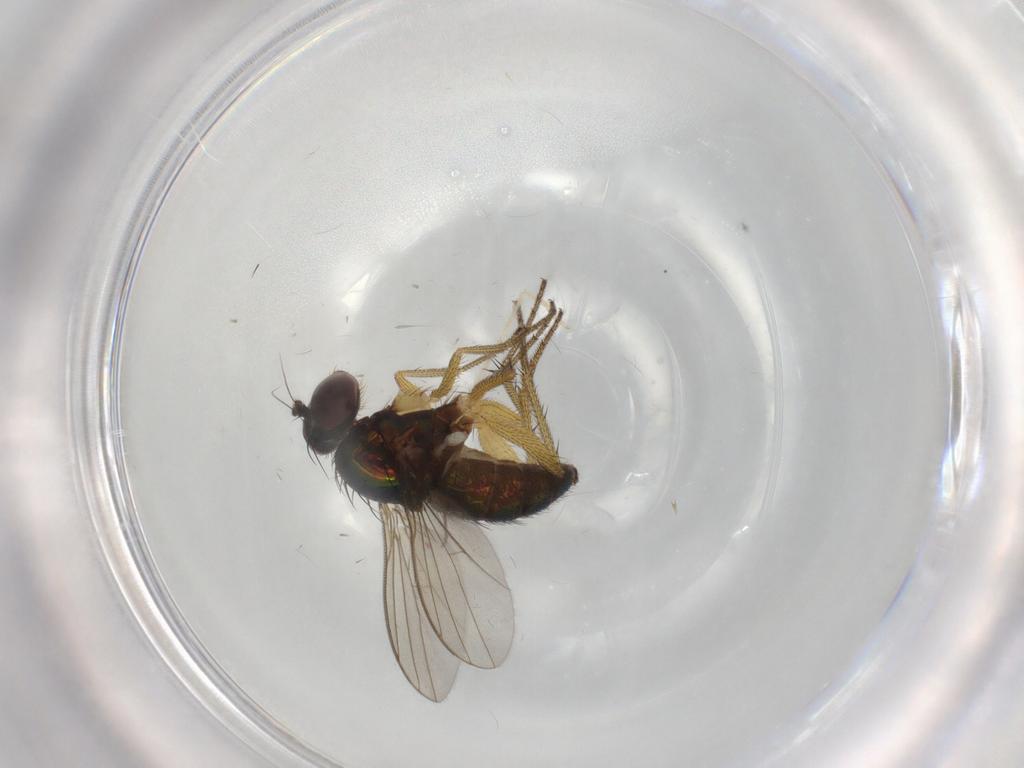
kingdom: Animalia
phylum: Arthropoda
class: Insecta
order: Diptera
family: Dolichopodidae
